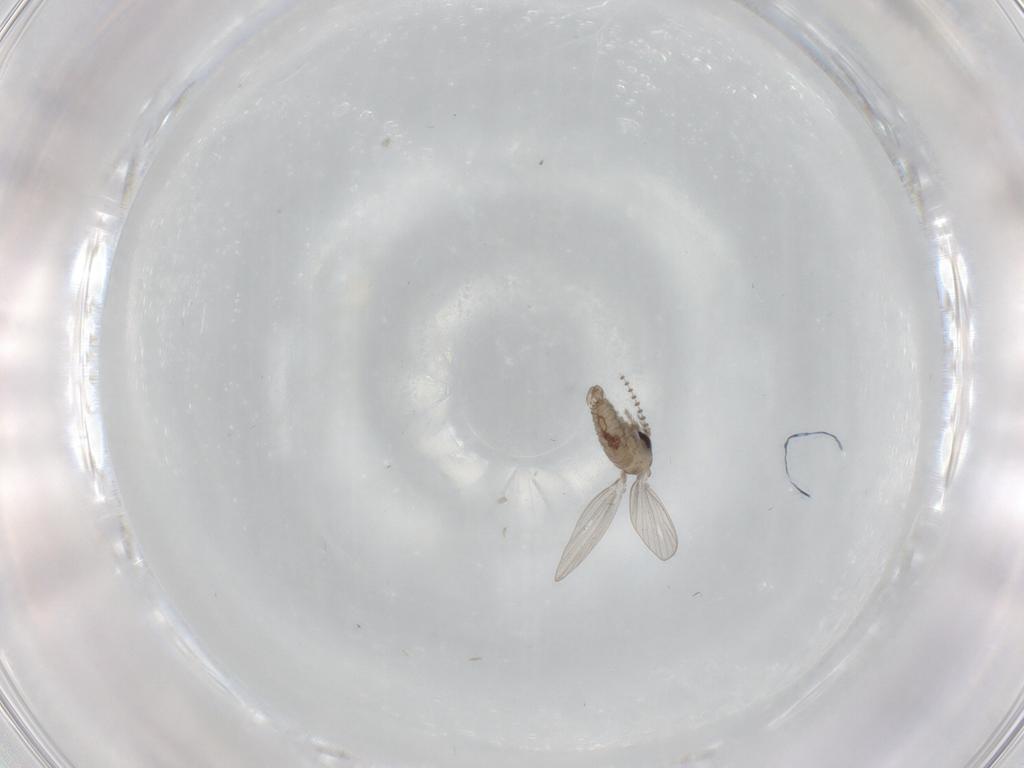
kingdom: Animalia
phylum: Arthropoda
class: Insecta
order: Diptera
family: Psychodidae
